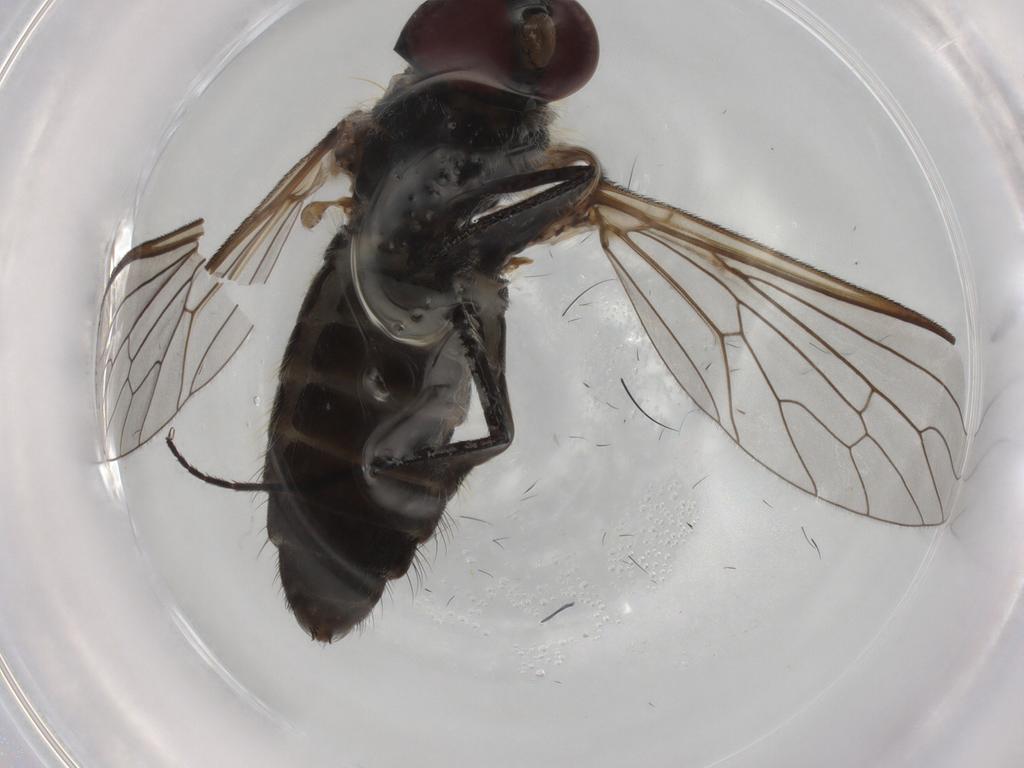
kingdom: Animalia
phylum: Arthropoda
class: Insecta
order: Diptera
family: Bombyliidae
